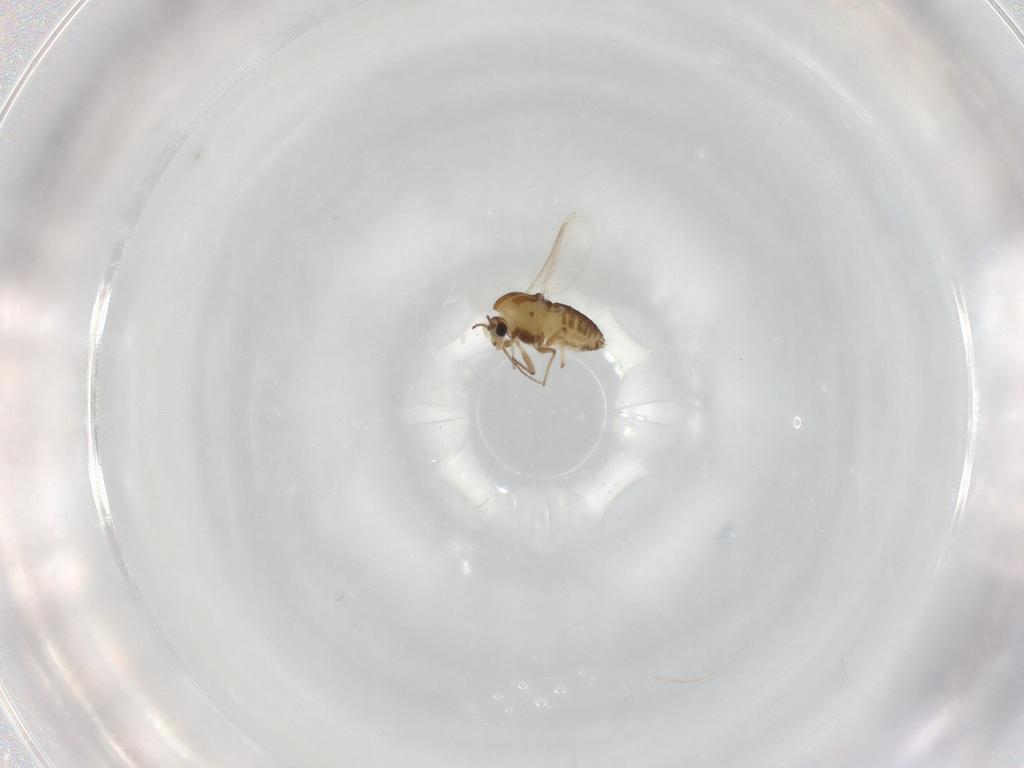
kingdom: Animalia
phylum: Arthropoda
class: Insecta
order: Diptera
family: Chironomidae
